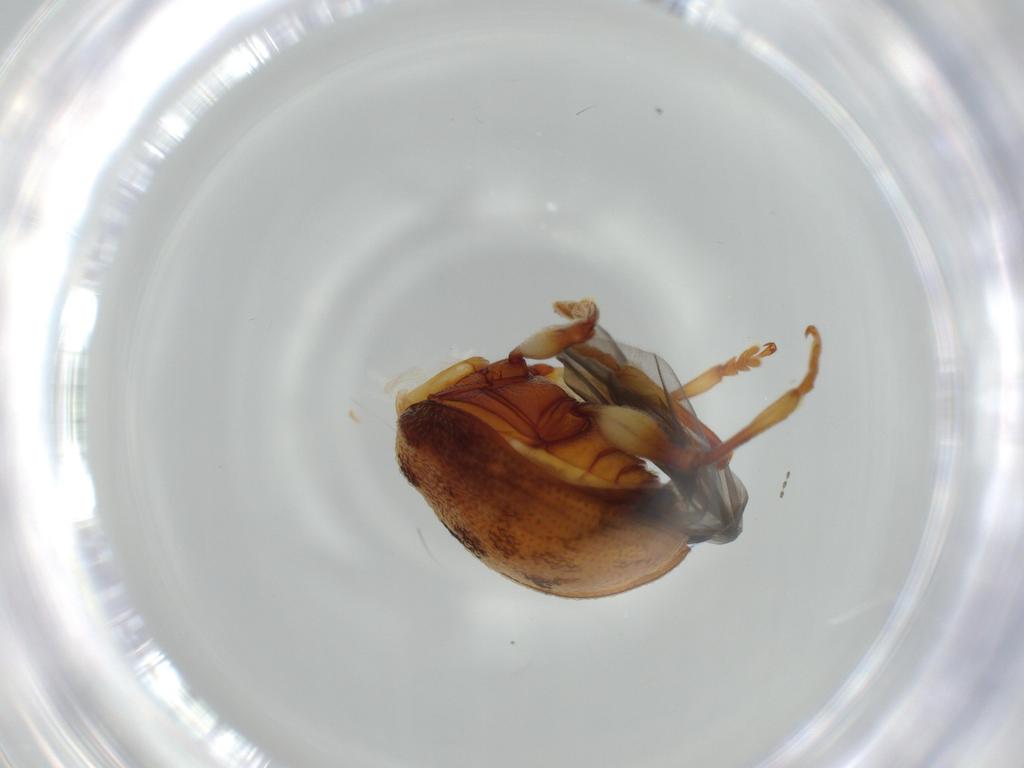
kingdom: Animalia
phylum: Arthropoda
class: Insecta
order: Coleoptera
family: Chrysomelidae
